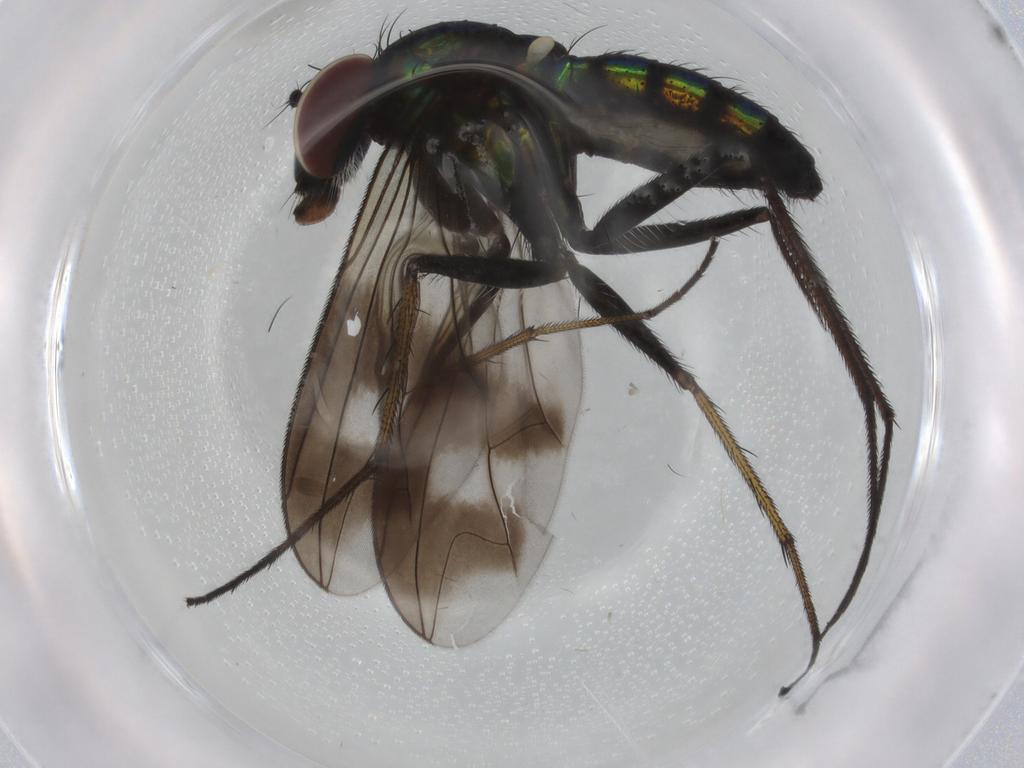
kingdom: Animalia
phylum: Arthropoda
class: Insecta
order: Diptera
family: Dolichopodidae
